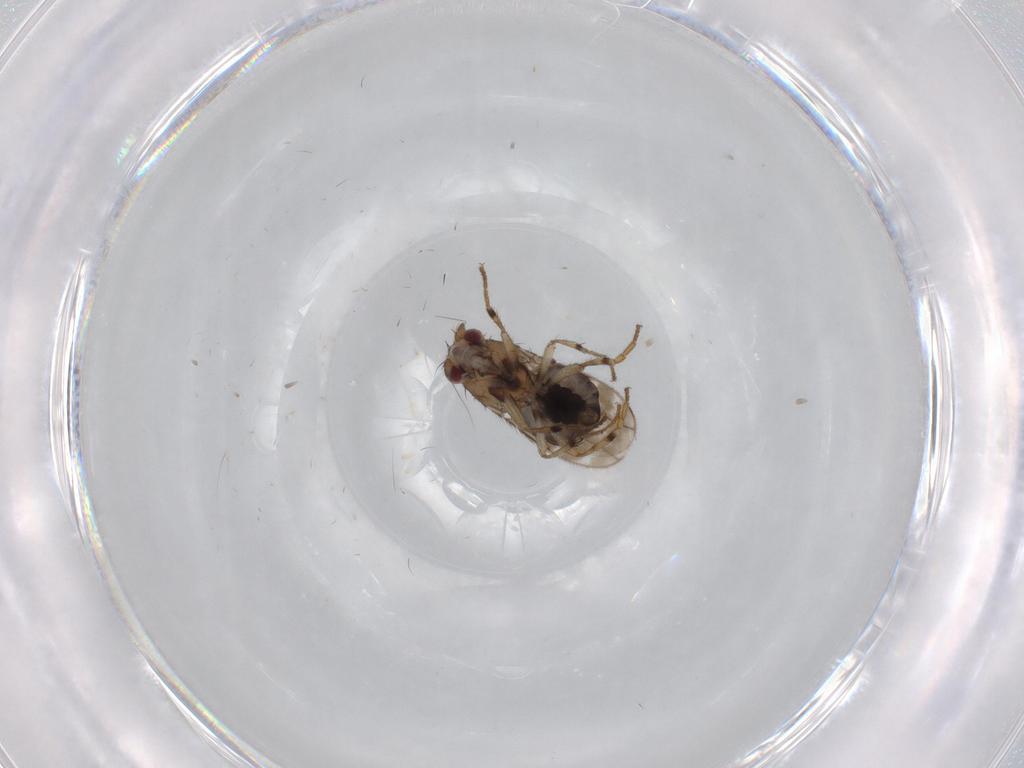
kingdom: Animalia
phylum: Arthropoda
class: Insecta
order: Diptera
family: Sphaeroceridae
